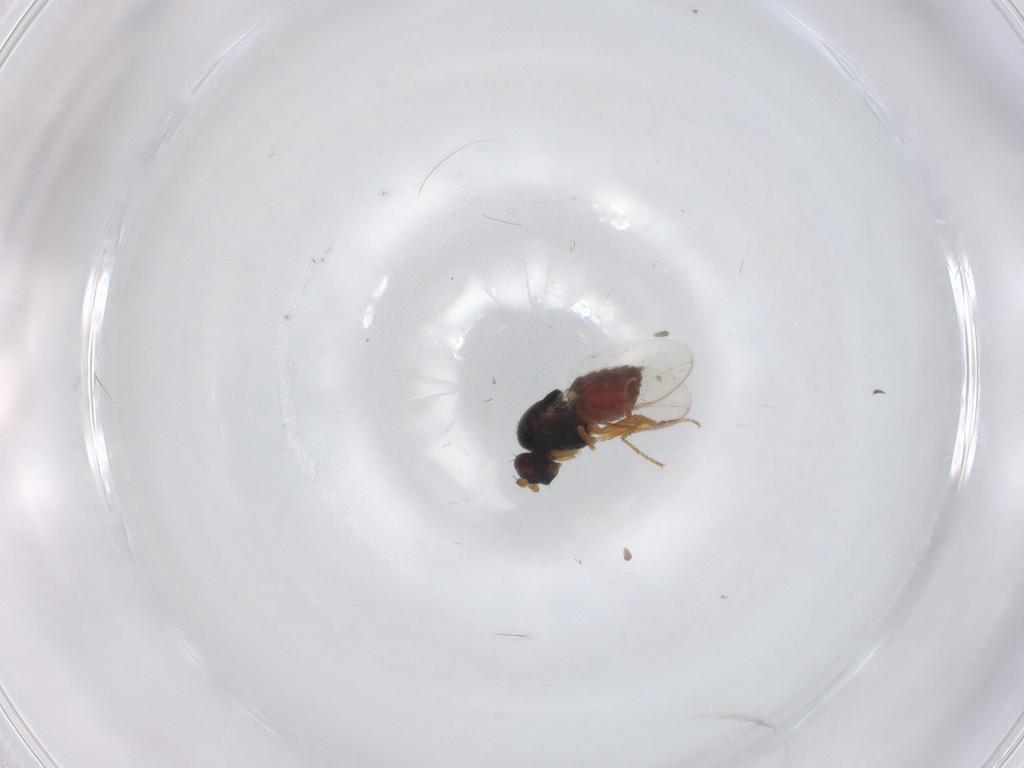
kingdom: Animalia
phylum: Arthropoda
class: Insecta
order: Diptera
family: Sphaeroceridae
